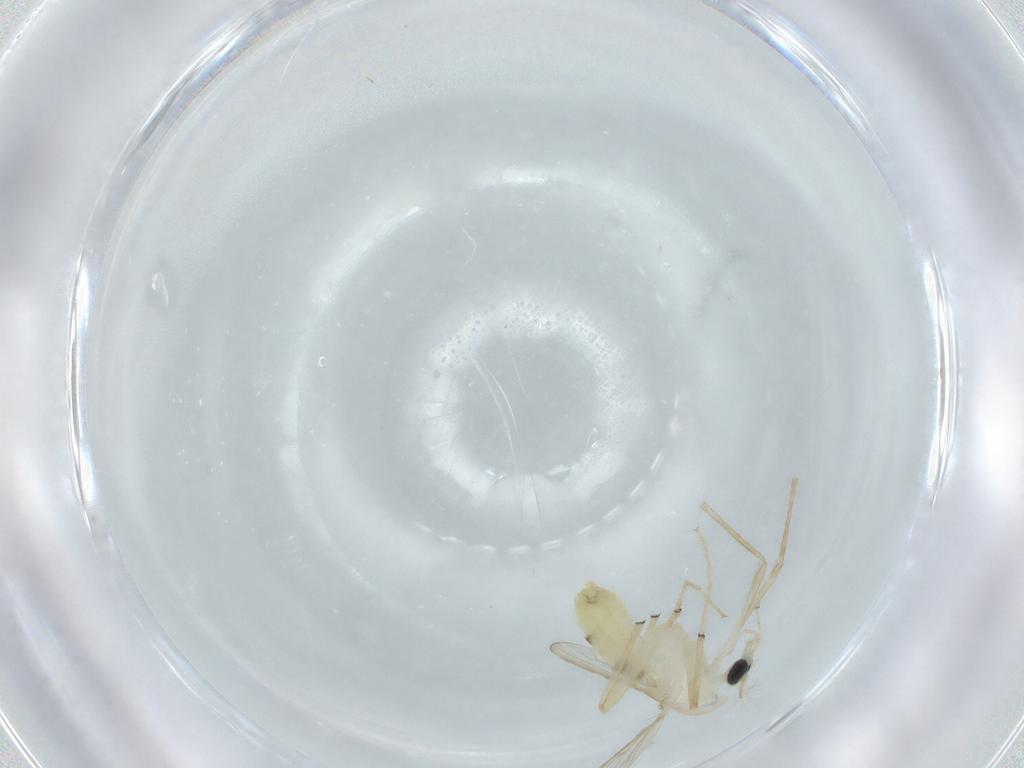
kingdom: Animalia
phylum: Arthropoda
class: Insecta
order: Diptera
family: Chironomidae
